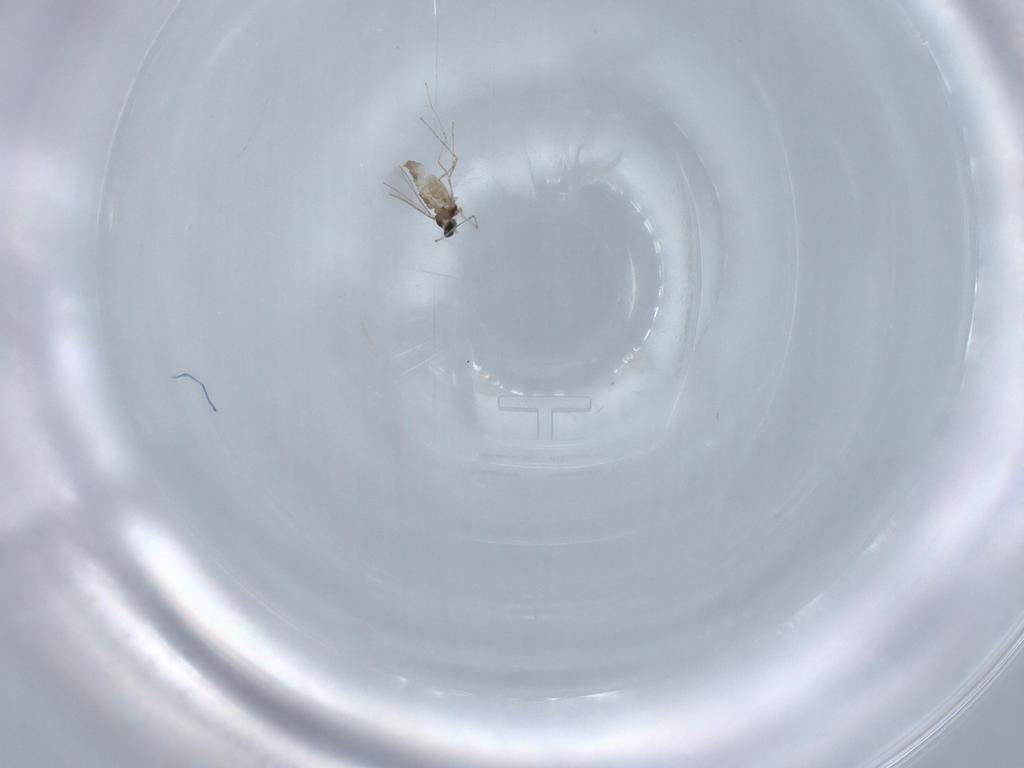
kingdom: Animalia
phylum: Arthropoda
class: Insecta
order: Diptera
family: Cecidomyiidae
